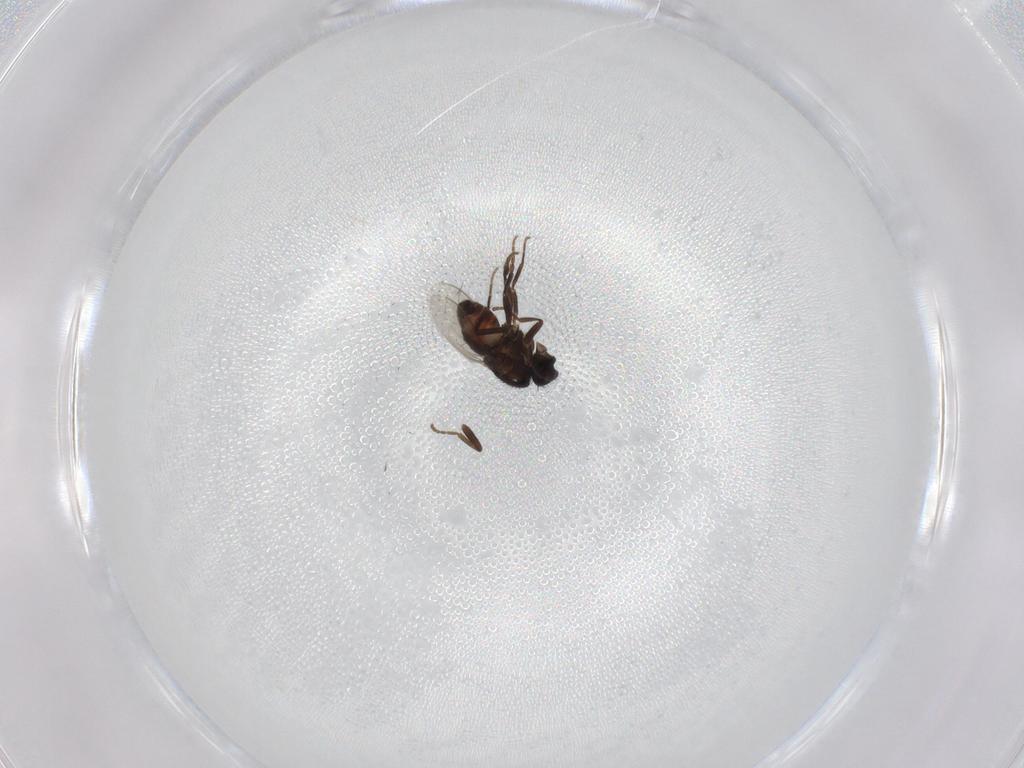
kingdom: Animalia
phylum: Arthropoda
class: Insecta
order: Diptera
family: Sphaeroceridae
